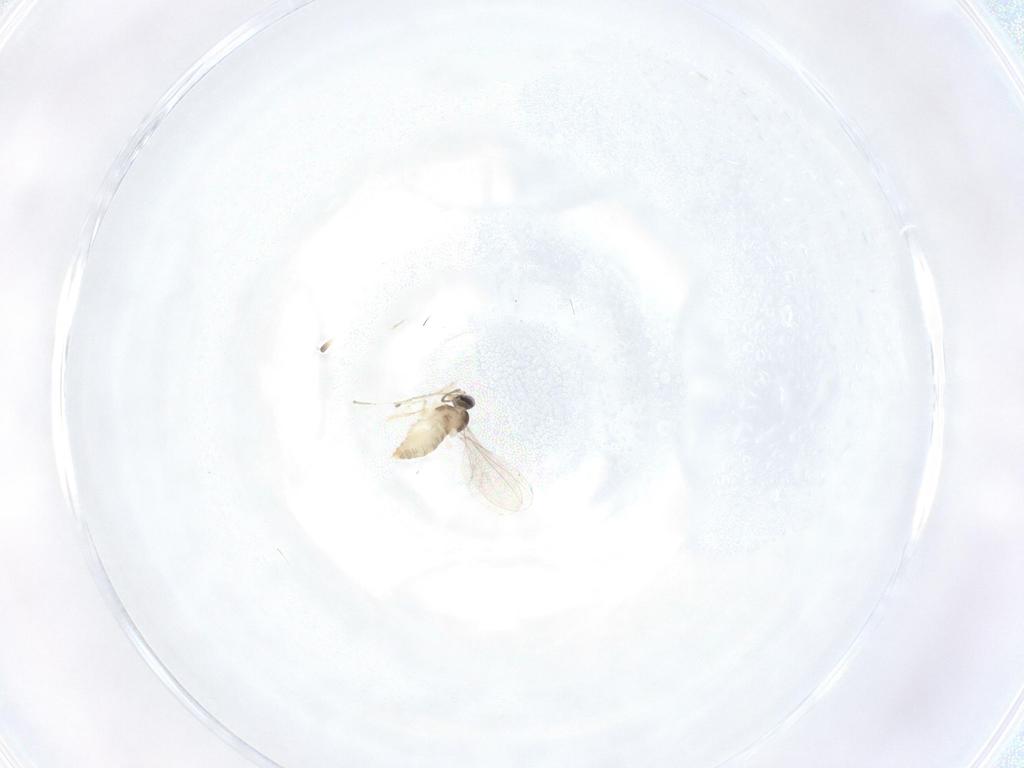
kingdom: Animalia
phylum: Arthropoda
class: Insecta
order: Diptera
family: Cecidomyiidae
